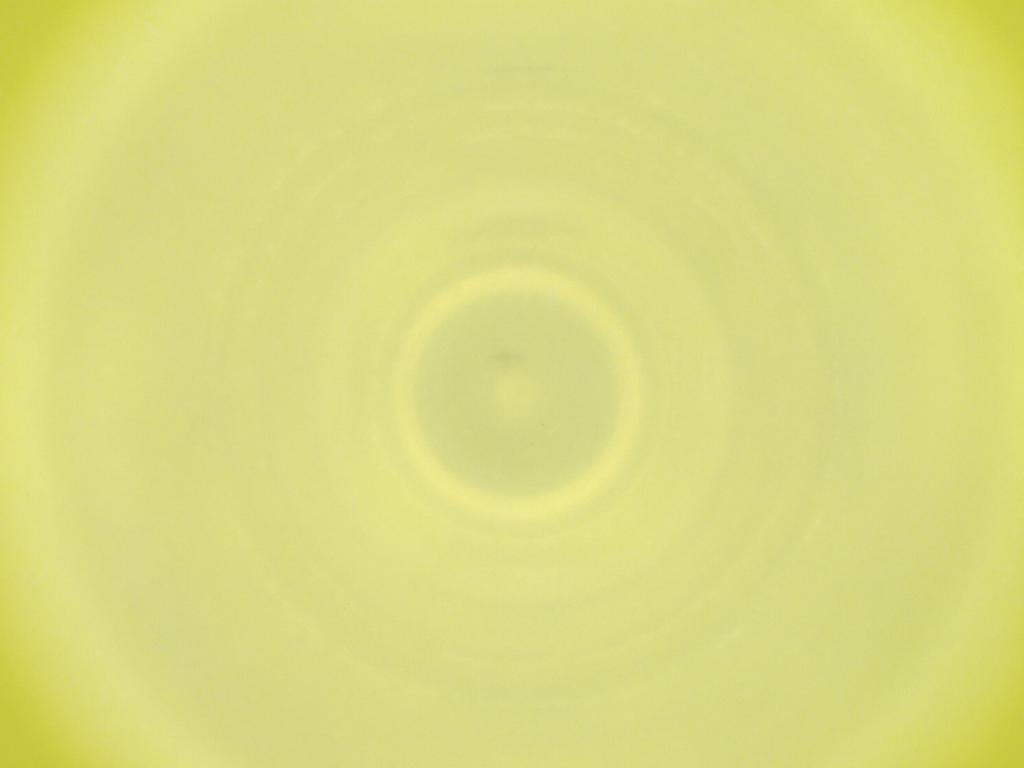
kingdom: Animalia
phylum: Arthropoda
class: Insecta
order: Diptera
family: Cecidomyiidae
